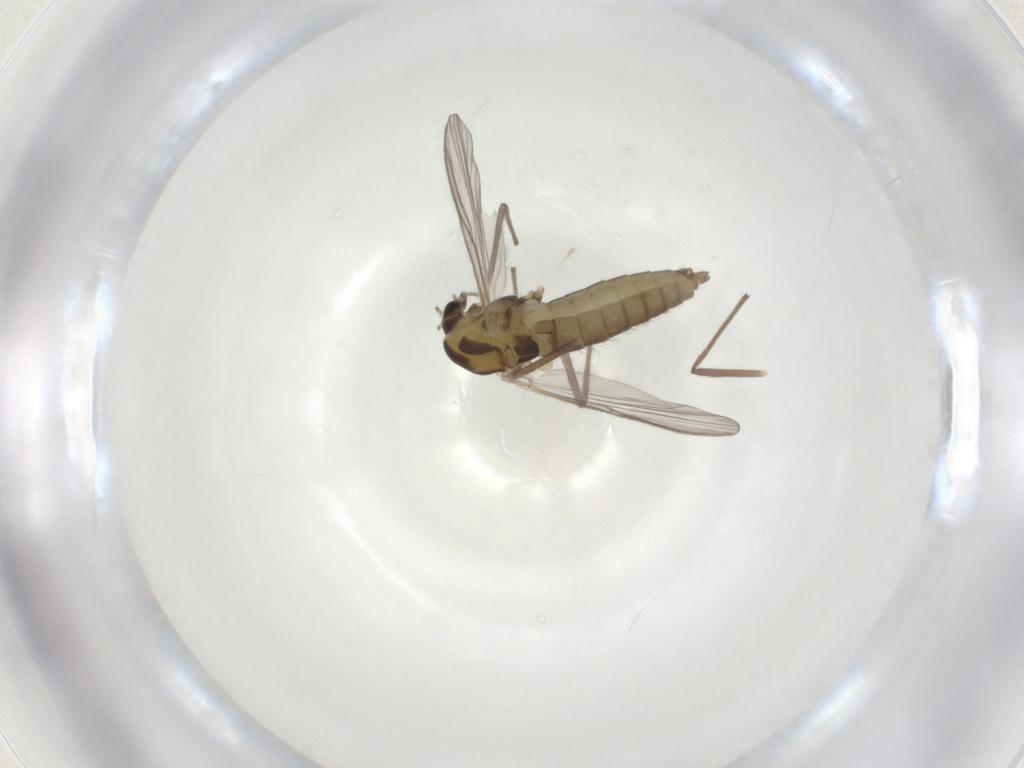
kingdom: Animalia
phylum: Arthropoda
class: Insecta
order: Diptera
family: Chironomidae
